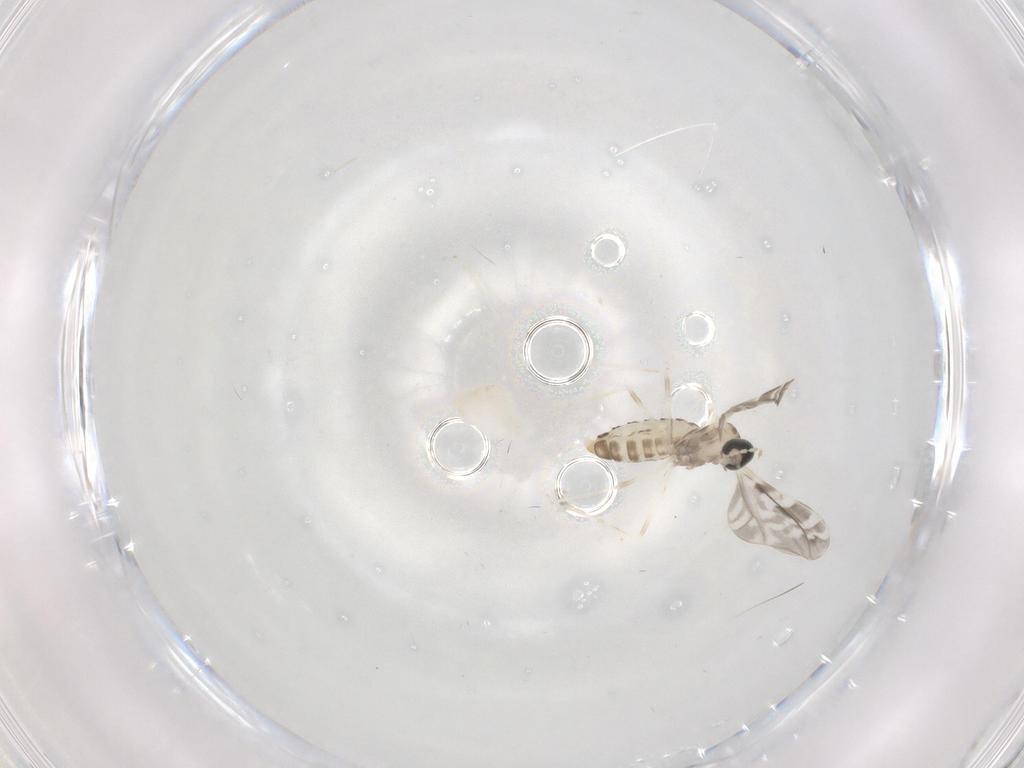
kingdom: Animalia
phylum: Arthropoda
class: Insecta
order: Diptera
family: Cecidomyiidae
